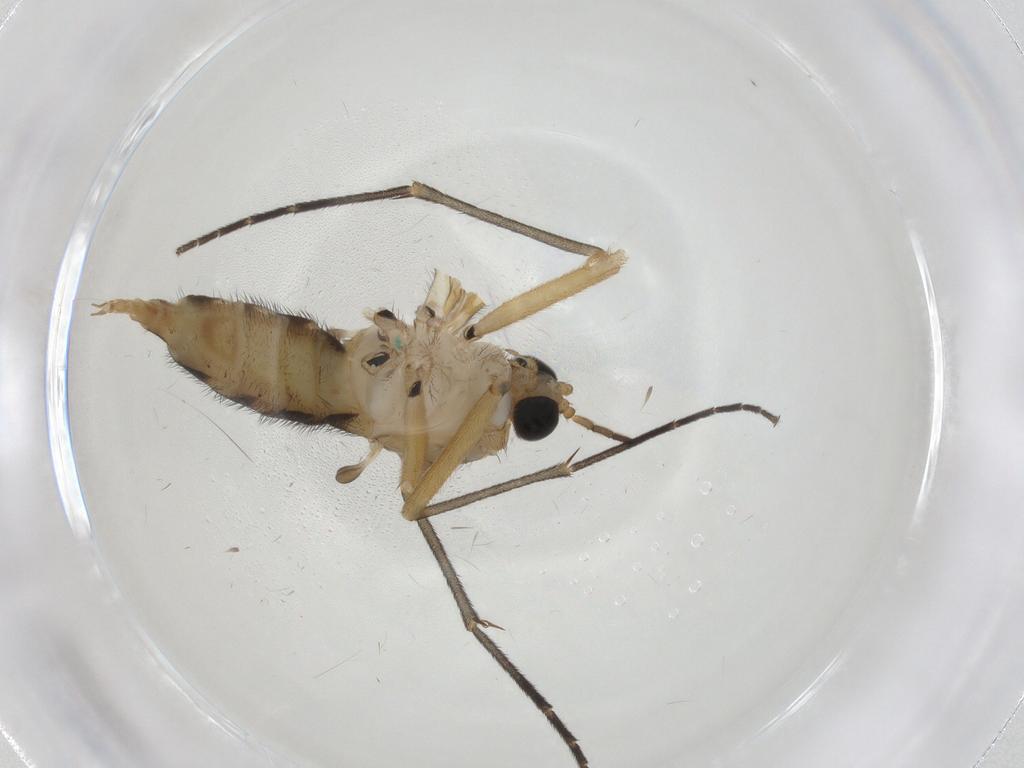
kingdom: Animalia
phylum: Arthropoda
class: Insecta
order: Diptera
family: Sciaridae
